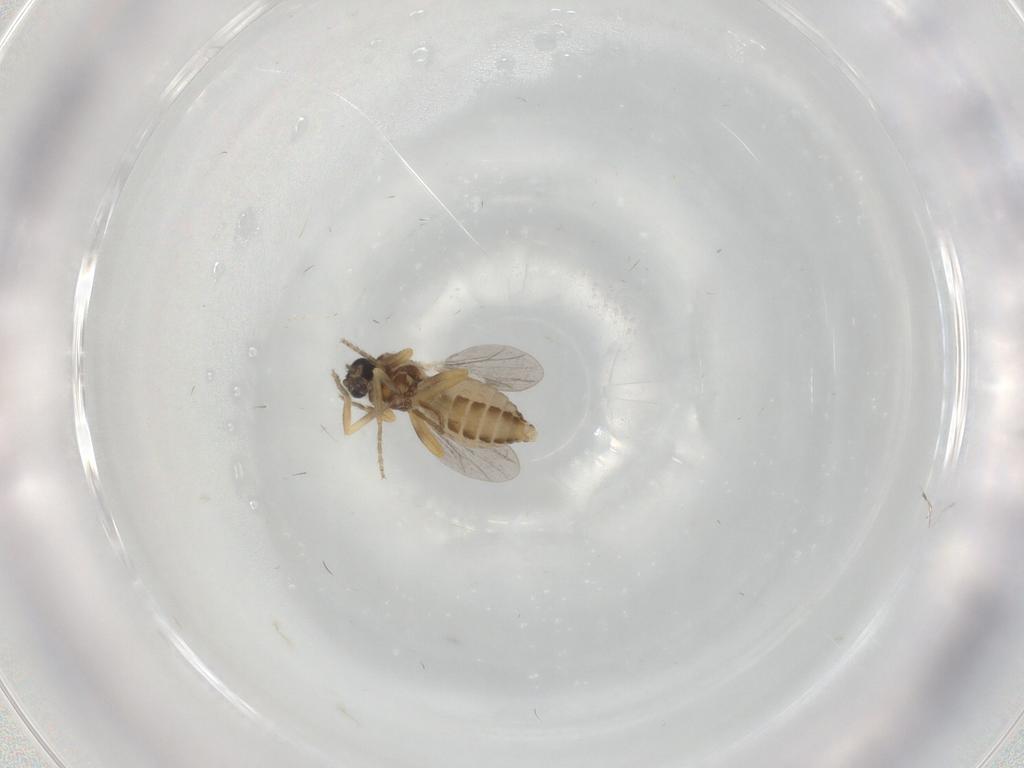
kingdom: Animalia
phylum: Arthropoda
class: Insecta
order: Diptera
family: Ceratopogonidae
